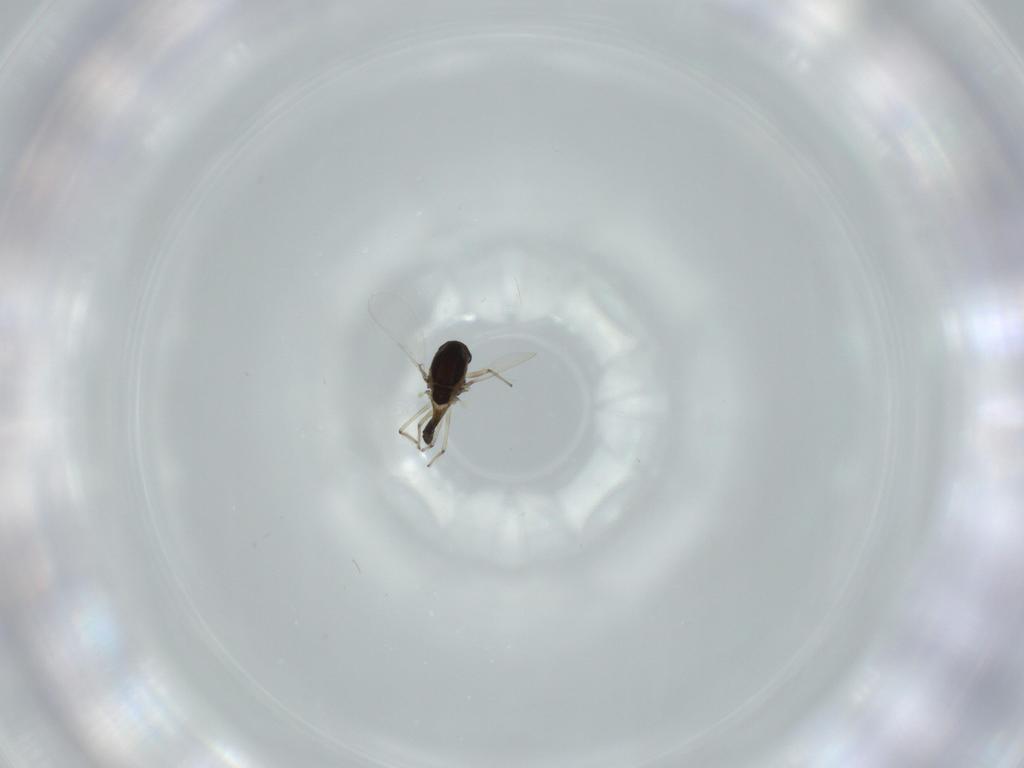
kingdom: Animalia
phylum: Arthropoda
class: Insecta
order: Diptera
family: Chironomidae
